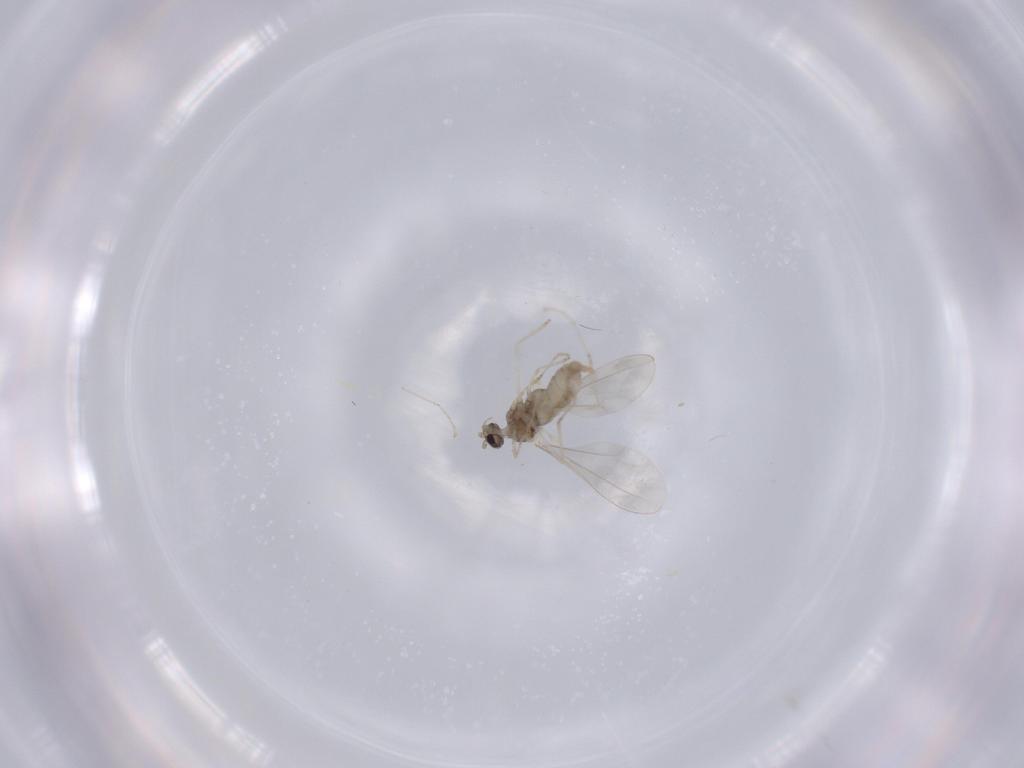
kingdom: Animalia
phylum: Arthropoda
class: Insecta
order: Diptera
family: Cecidomyiidae
